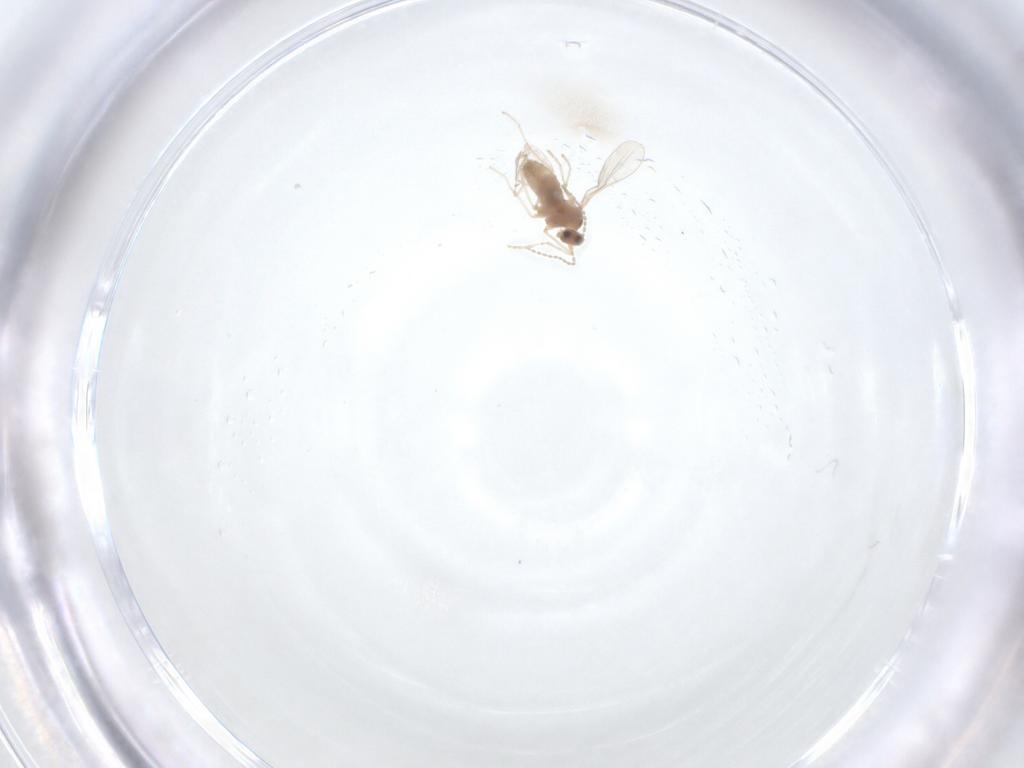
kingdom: Animalia
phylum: Arthropoda
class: Insecta
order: Diptera
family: Cecidomyiidae
